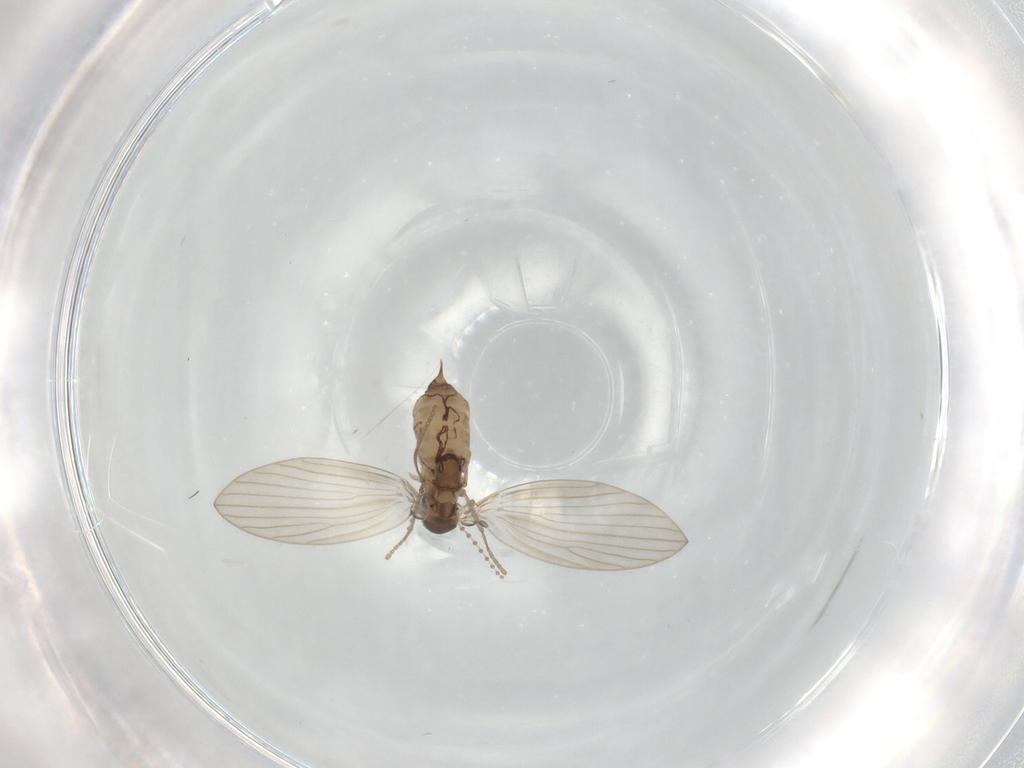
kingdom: Animalia
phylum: Arthropoda
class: Insecta
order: Diptera
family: Psychodidae
